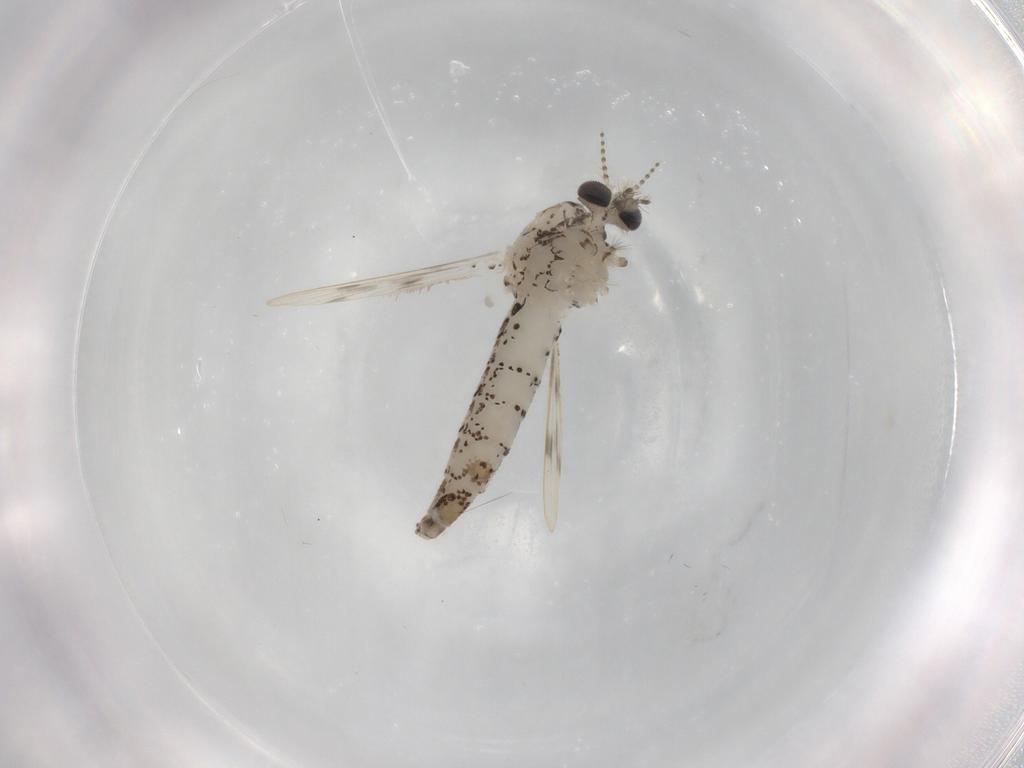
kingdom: Animalia
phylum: Arthropoda
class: Insecta
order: Diptera
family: Chaoboridae
